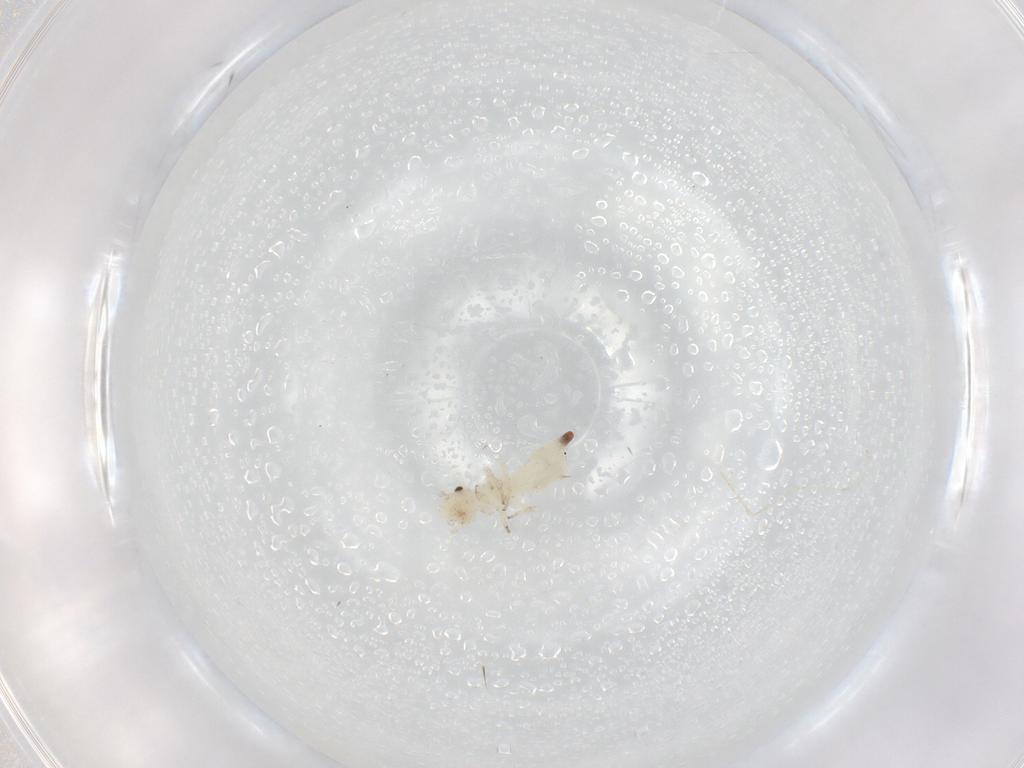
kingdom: Animalia
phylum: Arthropoda
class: Insecta
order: Psocodea
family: Caeciliusidae
